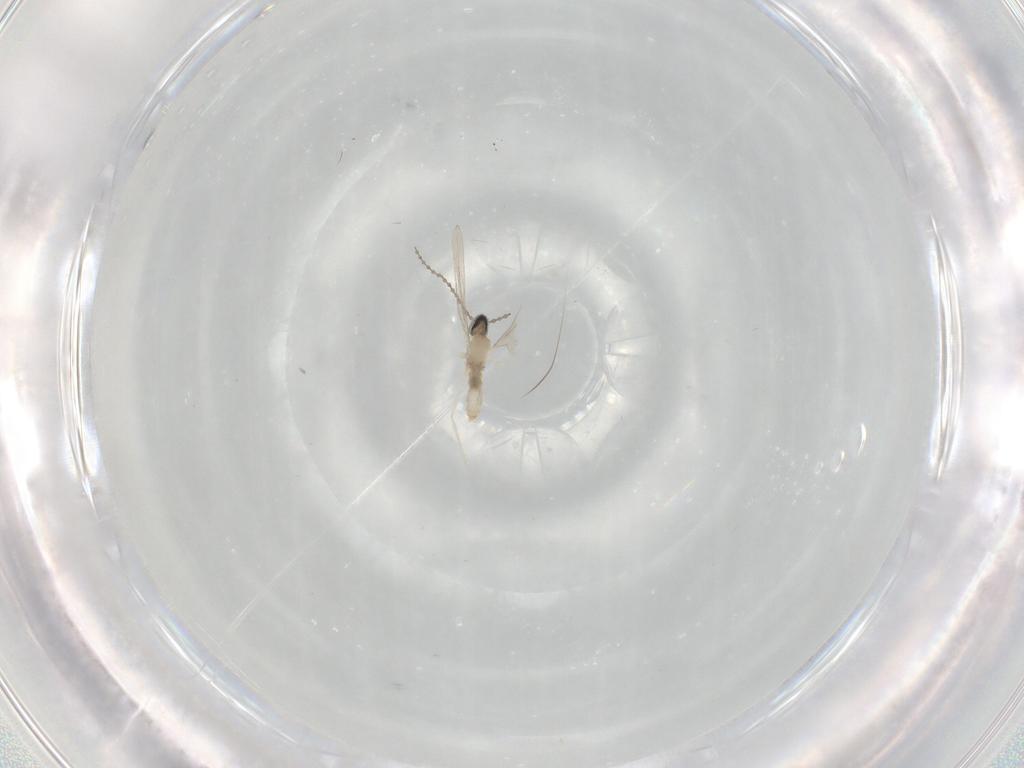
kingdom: Animalia
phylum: Arthropoda
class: Insecta
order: Diptera
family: Cecidomyiidae
